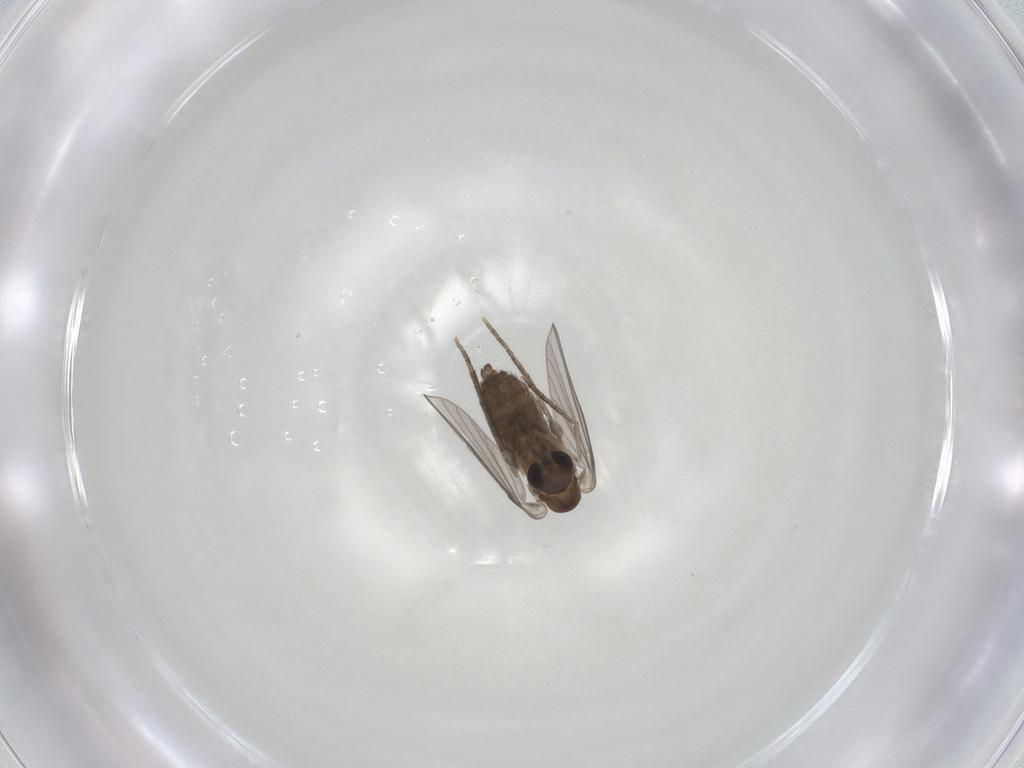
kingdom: Animalia
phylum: Arthropoda
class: Insecta
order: Diptera
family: Psychodidae
